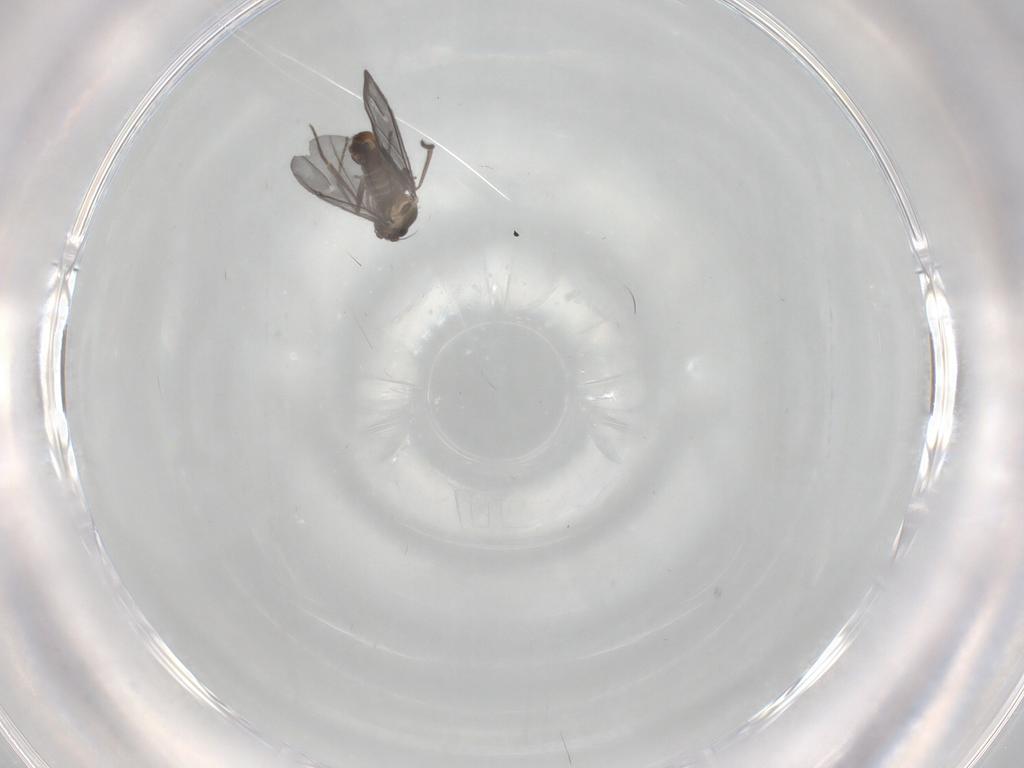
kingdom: Animalia
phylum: Arthropoda
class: Insecta
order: Diptera
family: Phoridae
